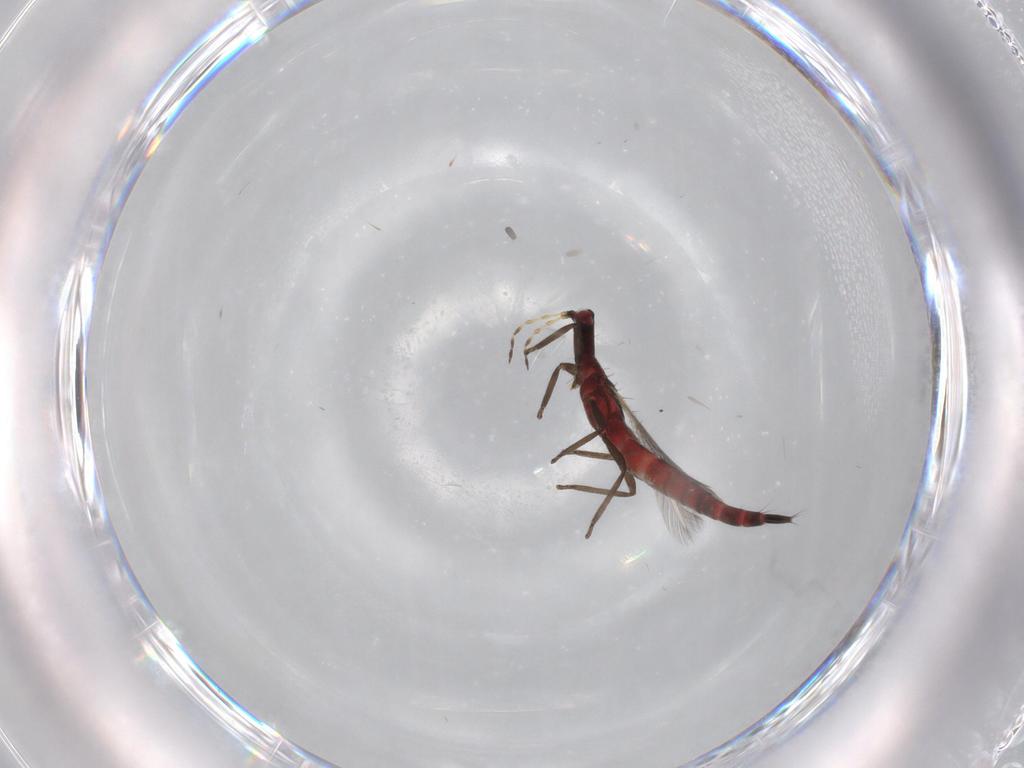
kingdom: Animalia
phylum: Arthropoda
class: Insecta
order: Thysanoptera
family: Phlaeothripidae
